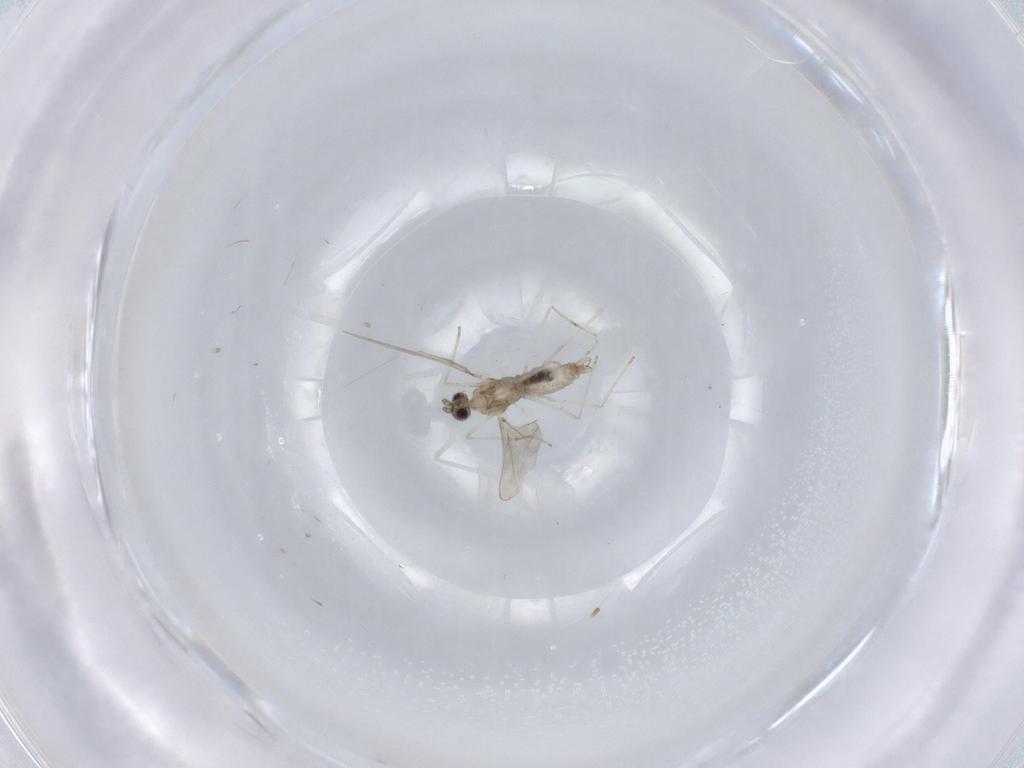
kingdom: Animalia
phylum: Arthropoda
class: Insecta
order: Diptera
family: Cecidomyiidae
